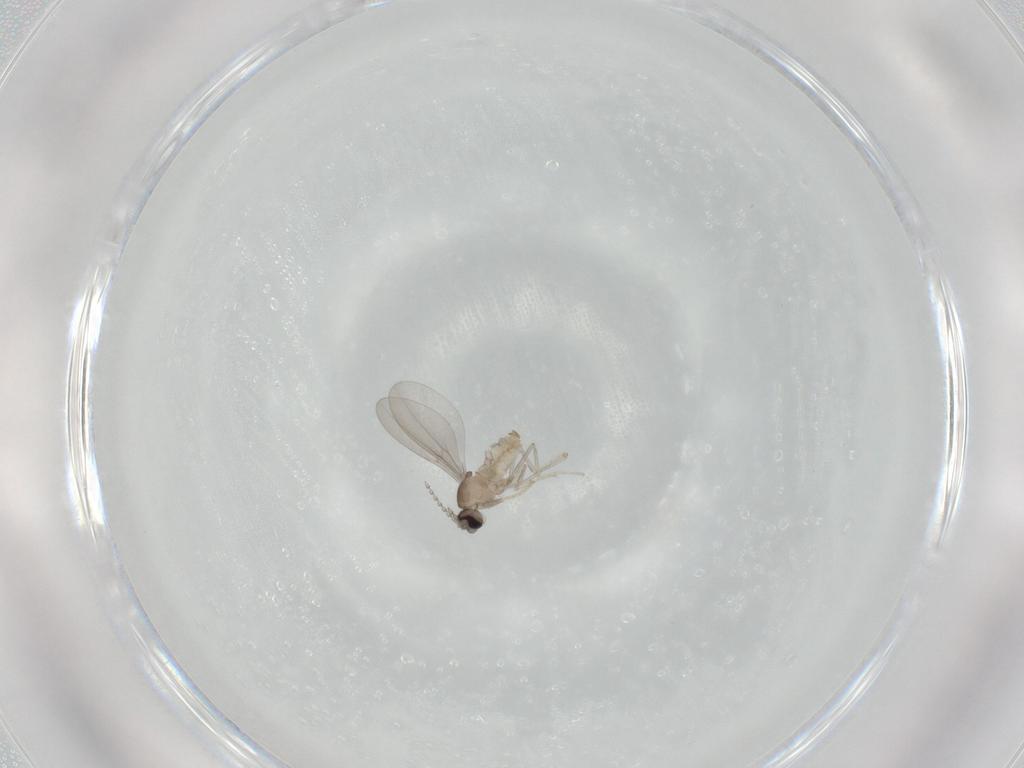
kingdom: Animalia
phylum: Arthropoda
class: Insecta
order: Diptera
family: Cecidomyiidae
